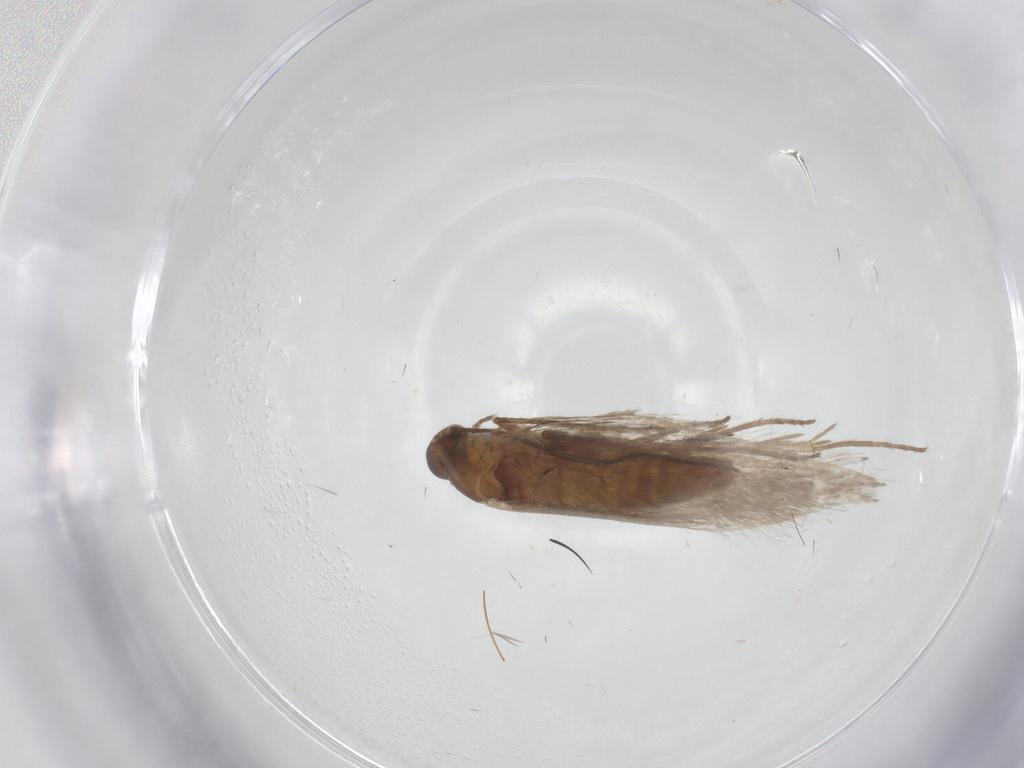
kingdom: Animalia
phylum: Arthropoda
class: Insecta
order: Lepidoptera
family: Douglasiidae
